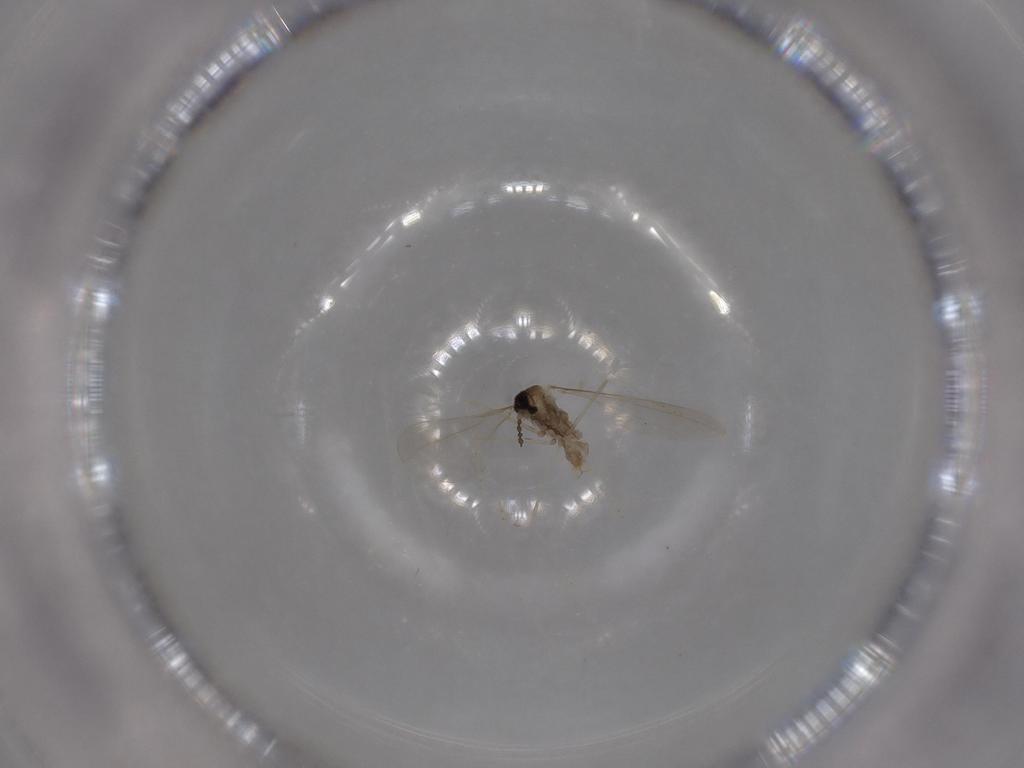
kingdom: Animalia
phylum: Arthropoda
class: Insecta
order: Diptera
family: Cecidomyiidae
